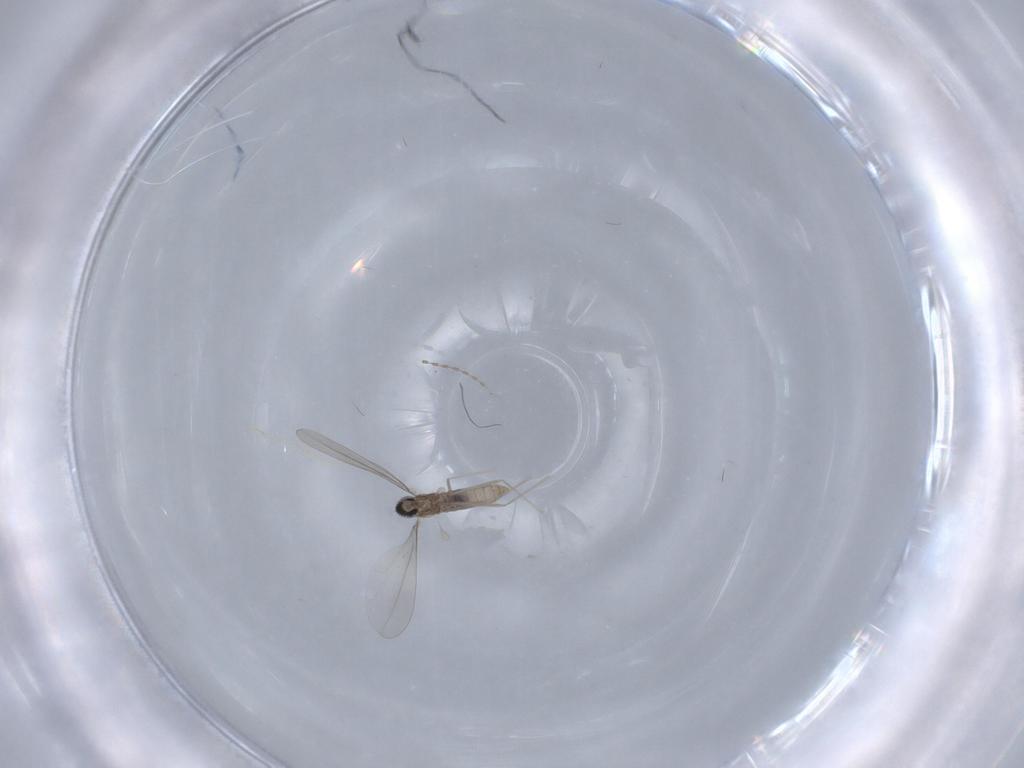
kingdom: Animalia
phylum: Arthropoda
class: Insecta
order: Diptera
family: Cecidomyiidae
